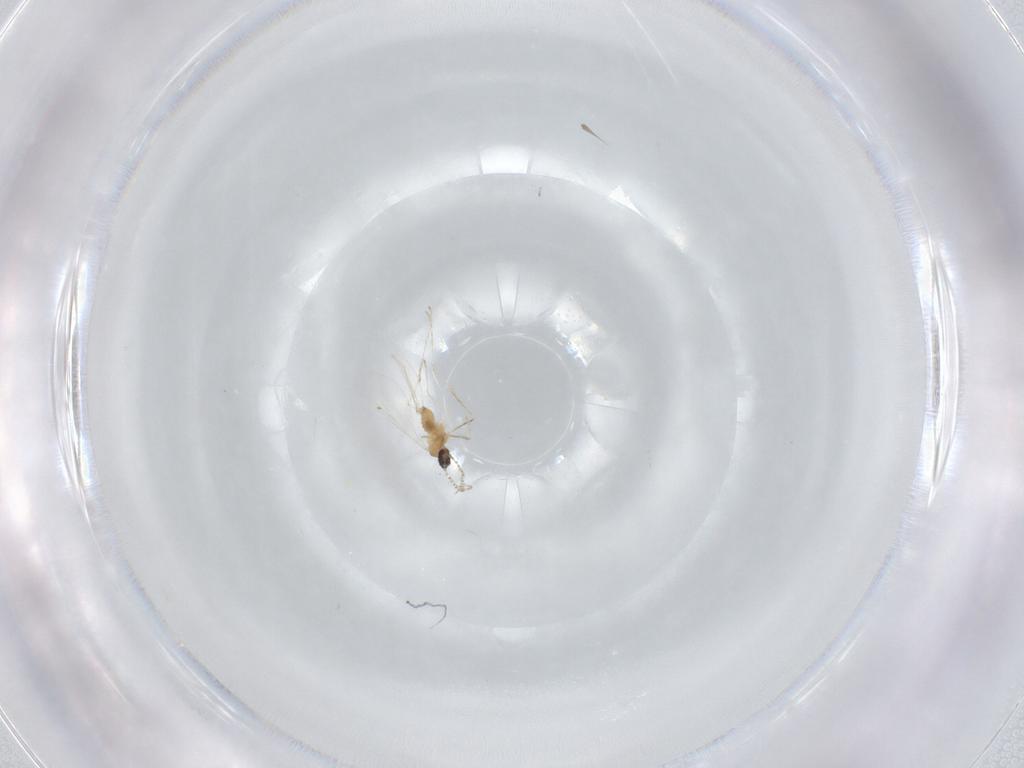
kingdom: Animalia
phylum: Arthropoda
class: Insecta
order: Diptera
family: Cecidomyiidae
